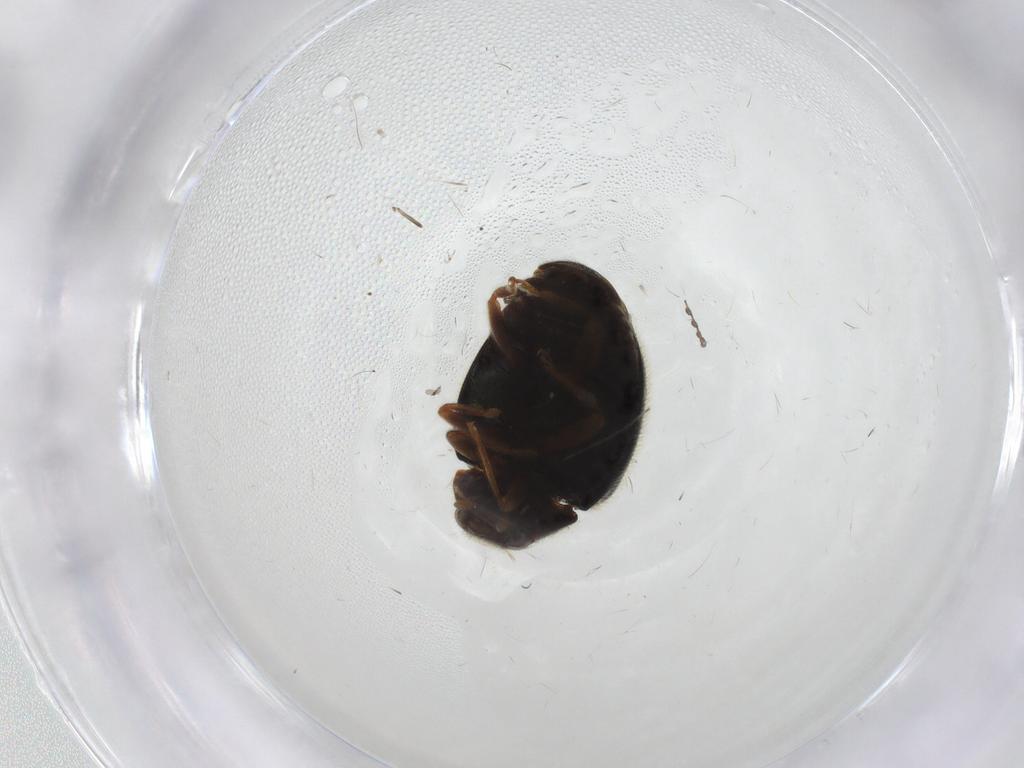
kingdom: Animalia
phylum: Arthropoda
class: Insecta
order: Coleoptera
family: Coccinellidae
